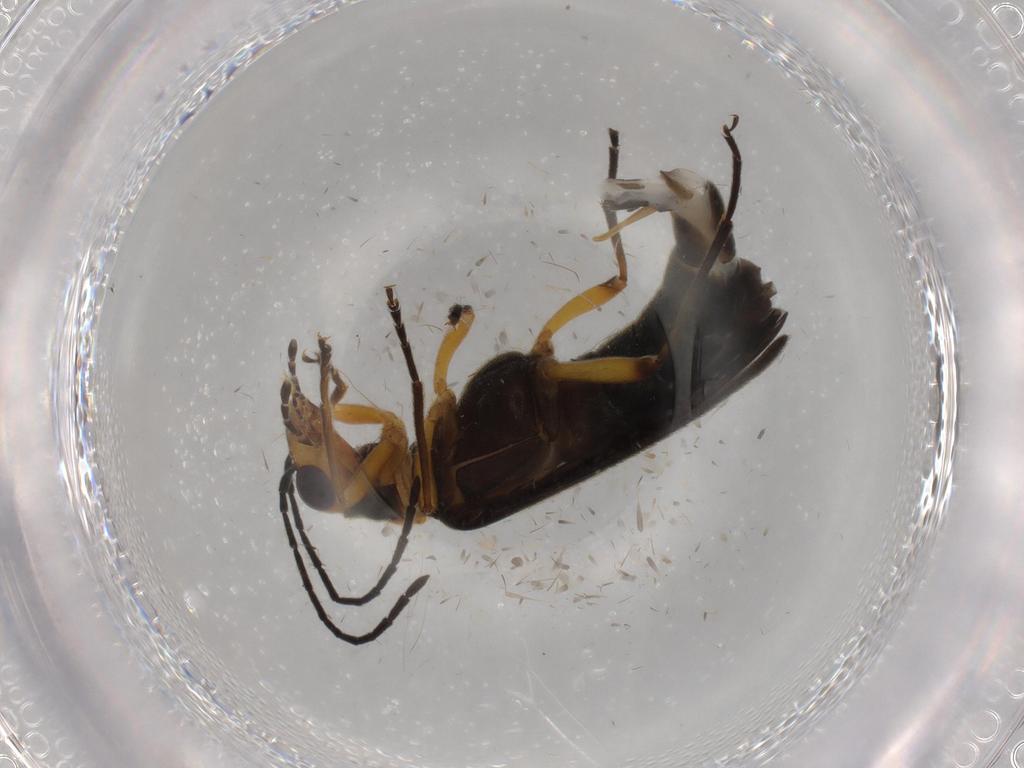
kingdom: Animalia
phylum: Arthropoda
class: Insecta
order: Coleoptera
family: Oedemeridae
